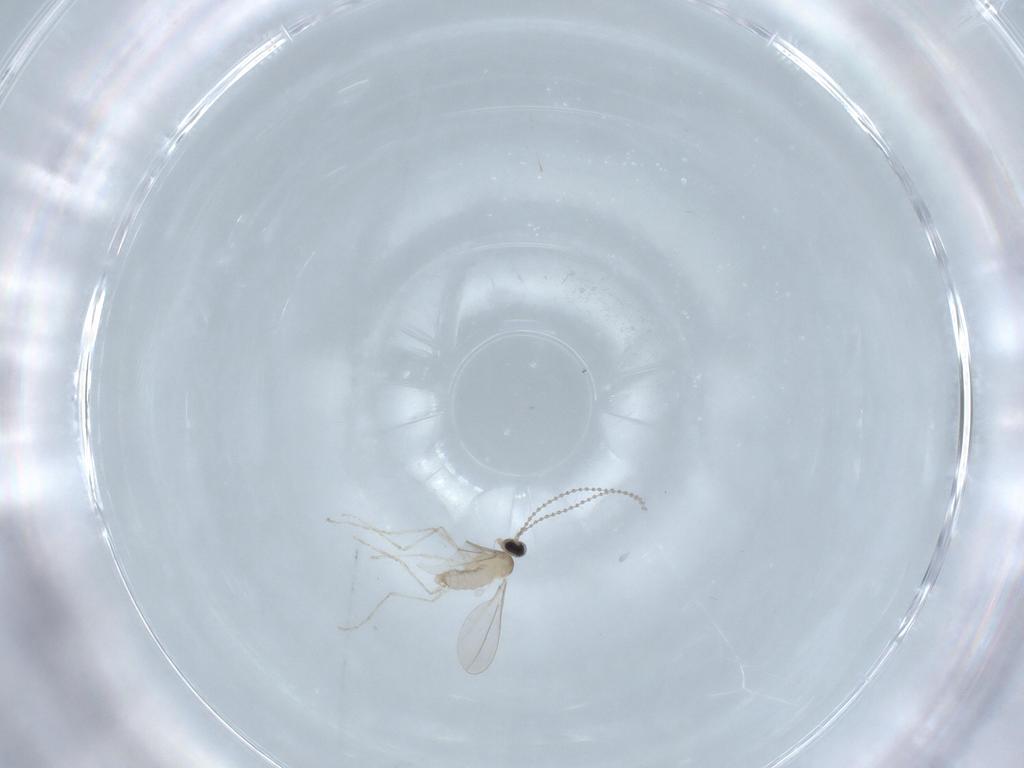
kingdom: Animalia
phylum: Arthropoda
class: Insecta
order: Diptera
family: Cecidomyiidae
